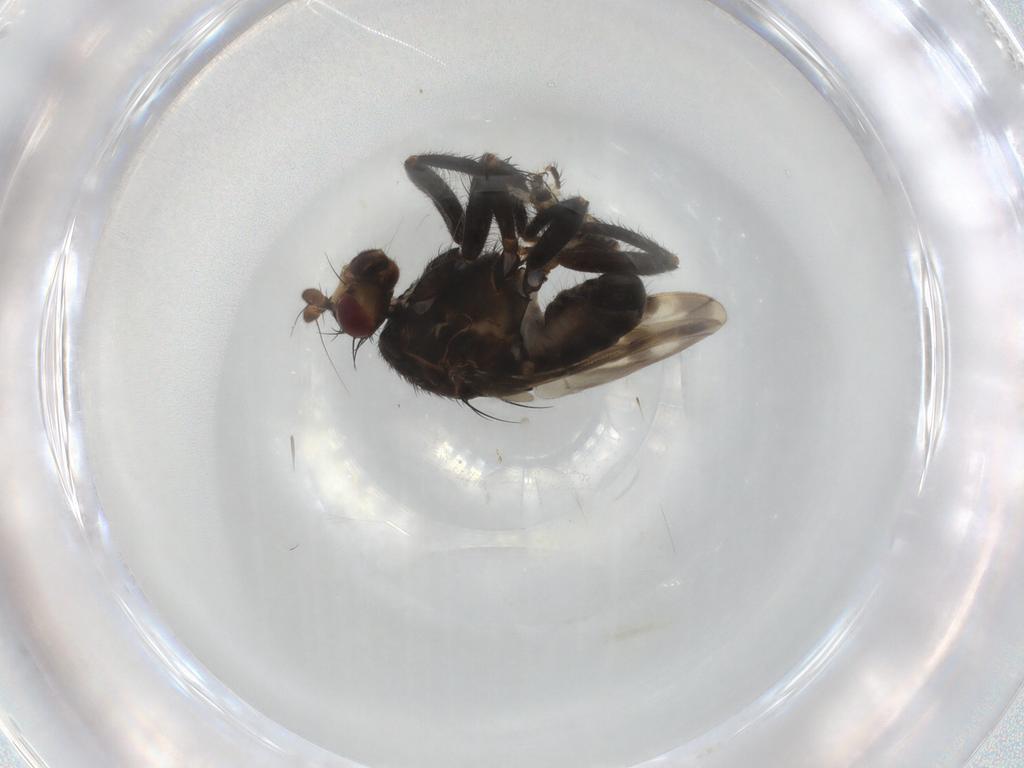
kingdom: Animalia
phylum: Arthropoda
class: Insecta
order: Diptera
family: Sphaeroceridae
